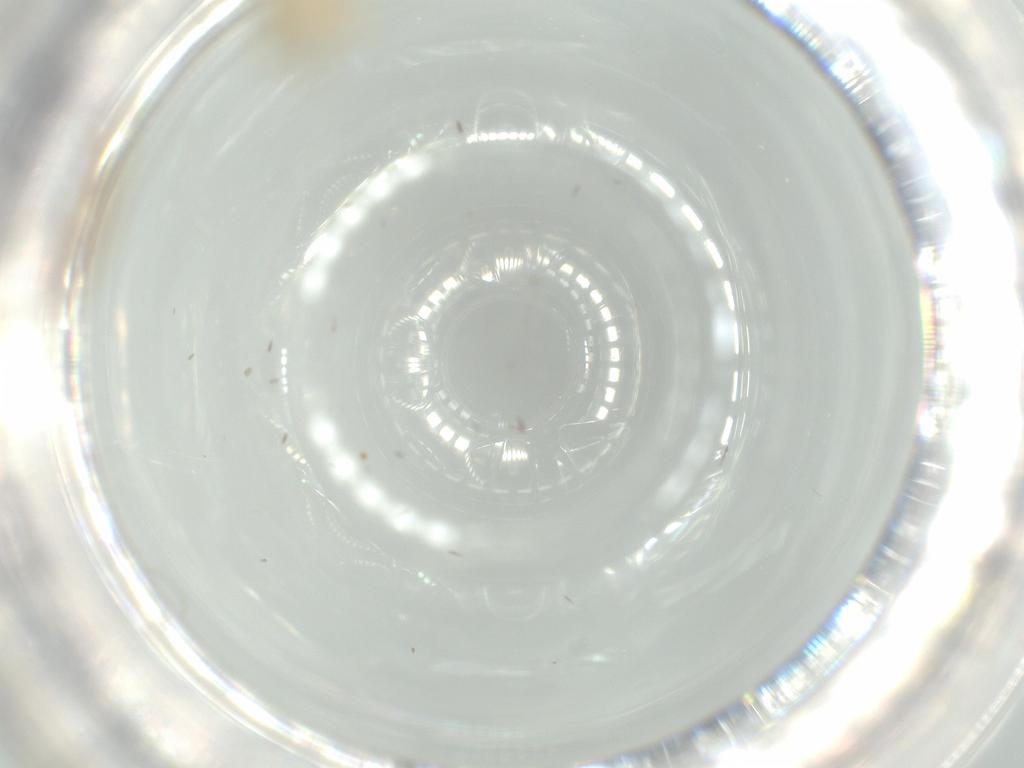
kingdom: Animalia
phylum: Arthropoda
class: Insecta
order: Orthoptera
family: Trigonidiidae
